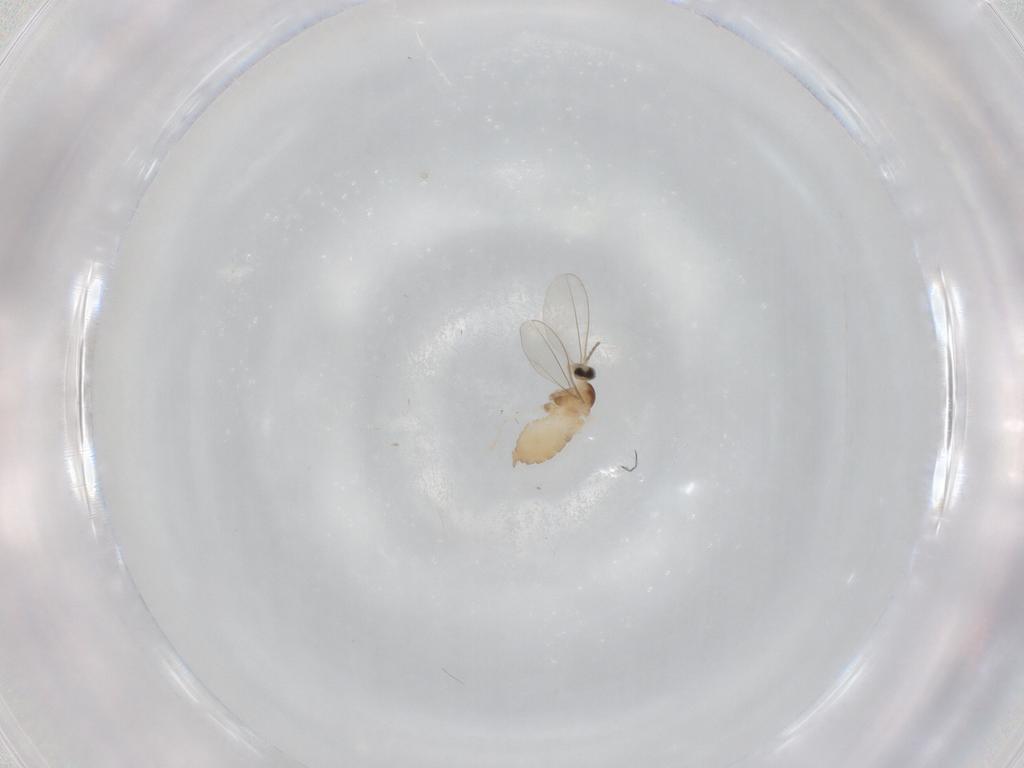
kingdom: Animalia
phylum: Arthropoda
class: Insecta
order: Diptera
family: Cecidomyiidae
